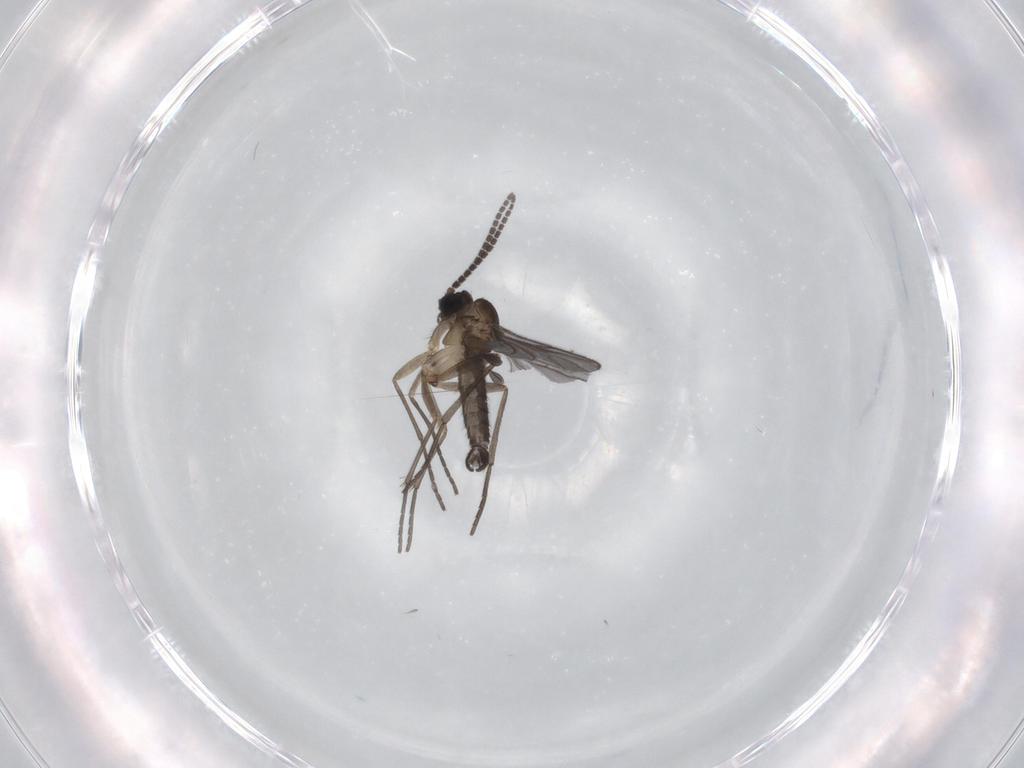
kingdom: Animalia
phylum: Arthropoda
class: Insecta
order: Diptera
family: Sciaridae
